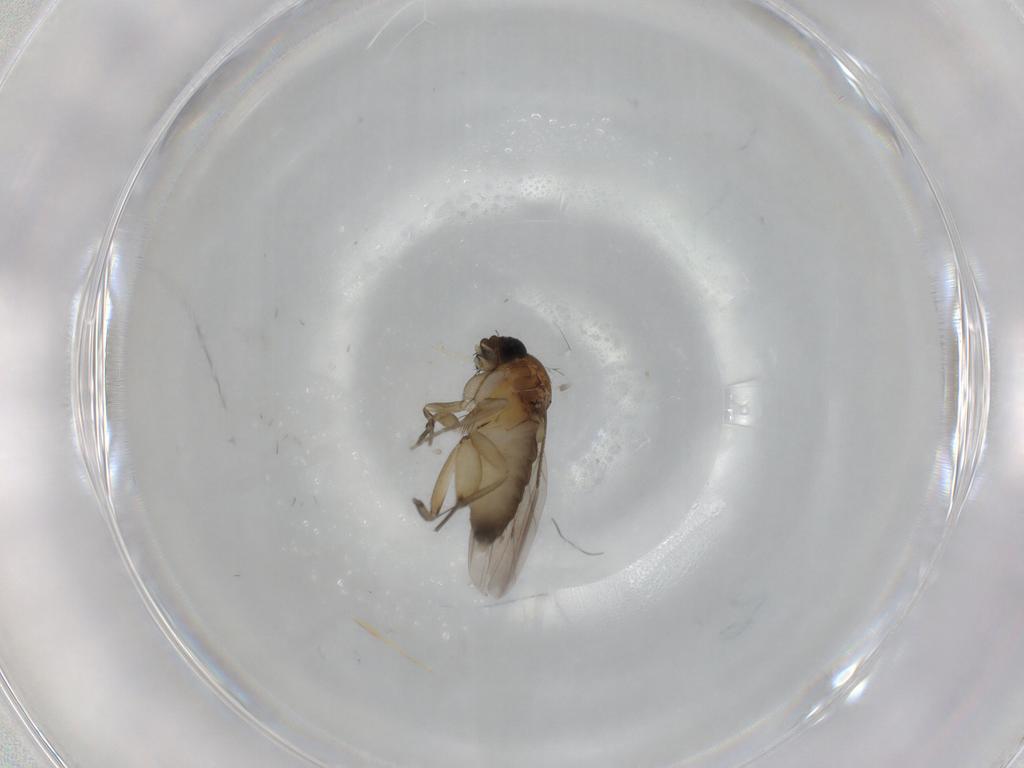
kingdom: Animalia
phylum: Arthropoda
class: Insecta
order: Diptera
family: Phoridae
